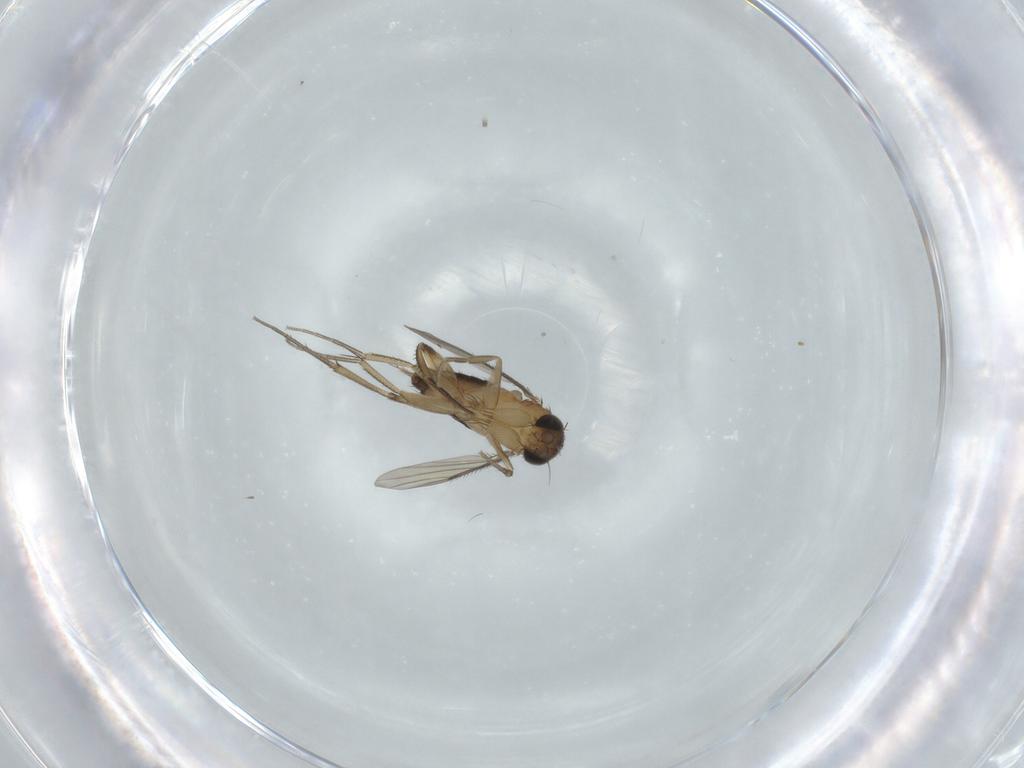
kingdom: Animalia
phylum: Arthropoda
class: Insecta
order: Diptera
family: Phoridae
